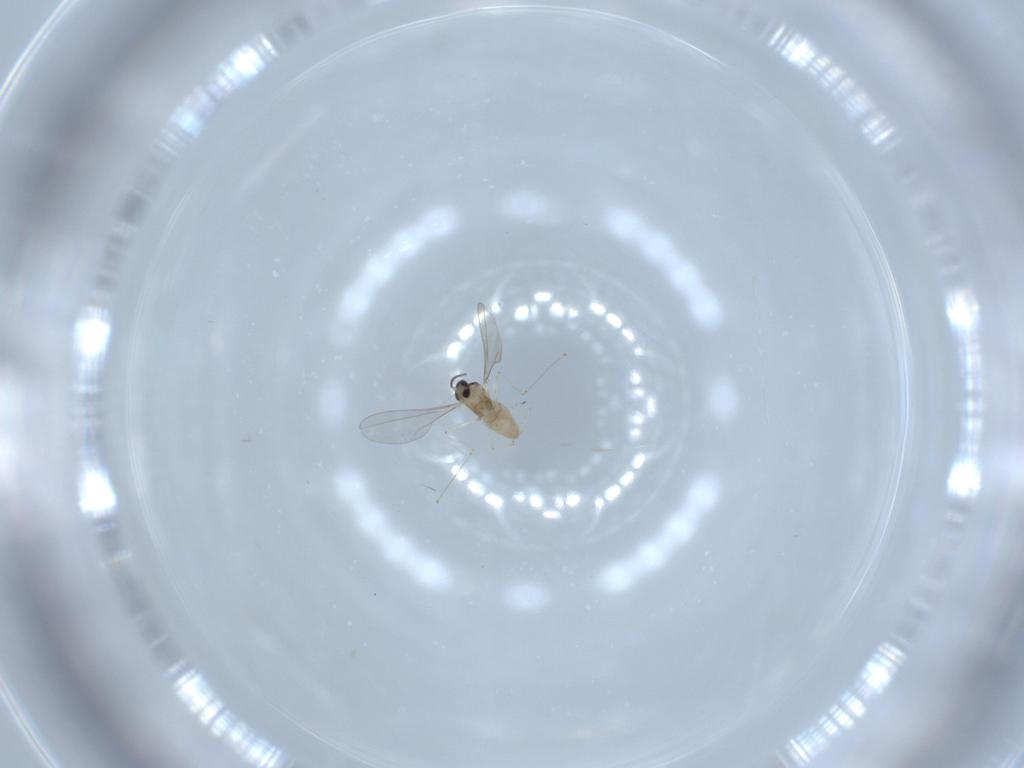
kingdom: Animalia
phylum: Arthropoda
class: Insecta
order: Diptera
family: Cecidomyiidae
